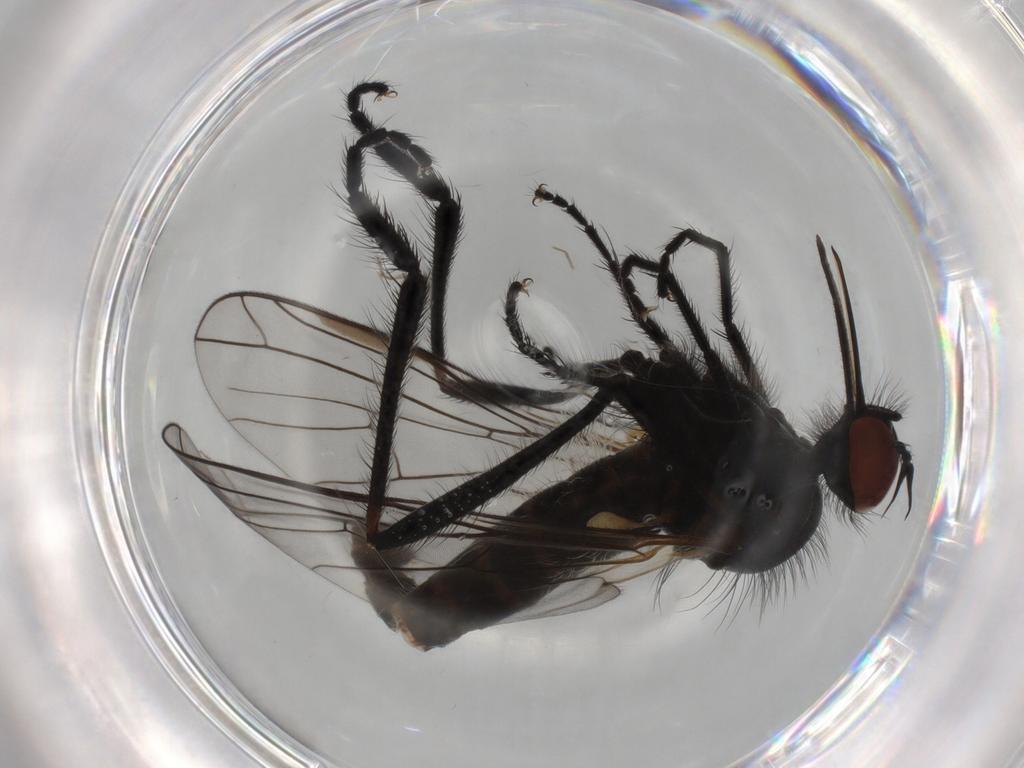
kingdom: Animalia
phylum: Arthropoda
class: Insecta
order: Diptera
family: Empididae
